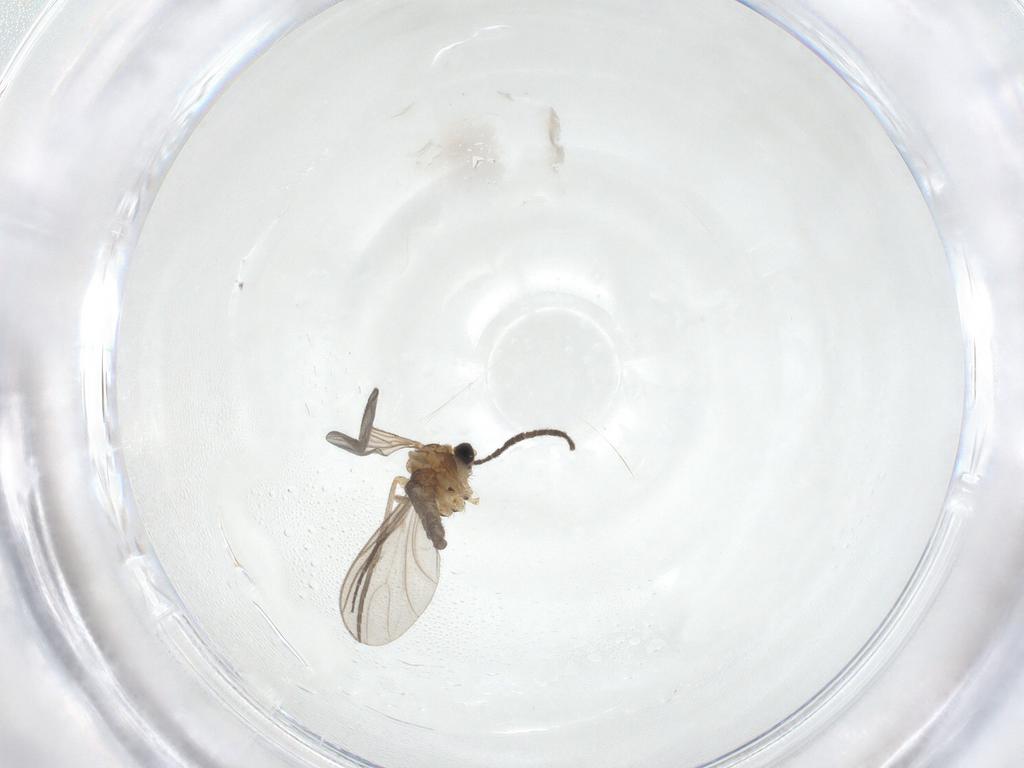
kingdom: Animalia
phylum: Arthropoda
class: Insecta
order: Diptera
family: Sciaridae
